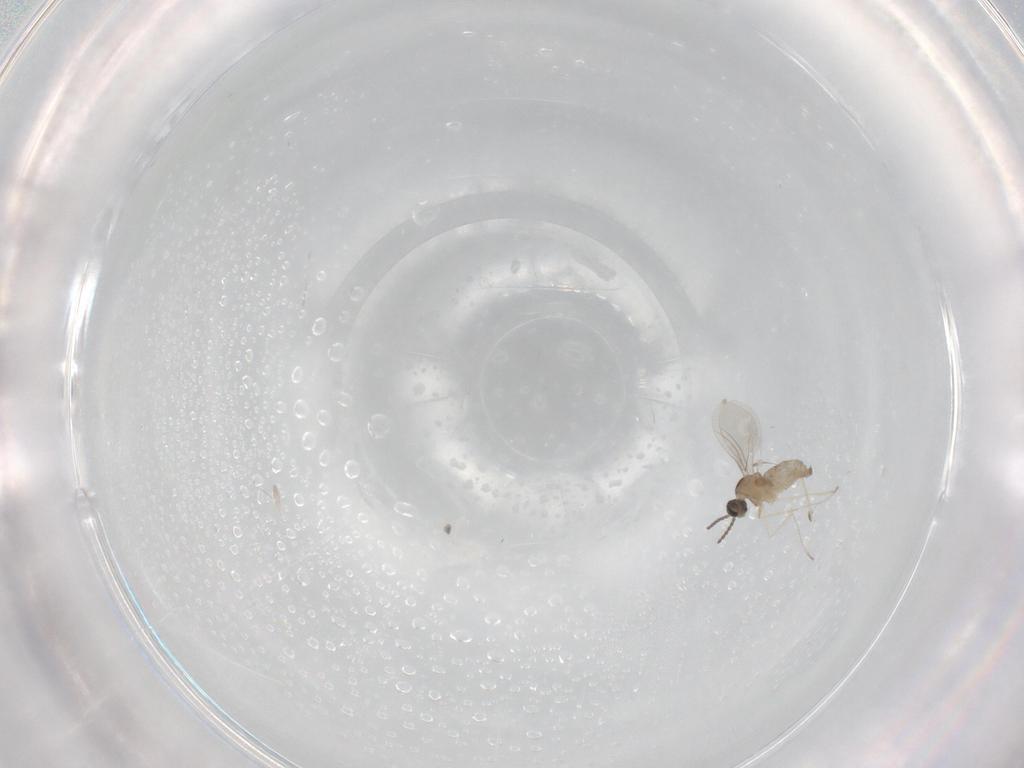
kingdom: Animalia
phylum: Arthropoda
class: Insecta
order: Diptera
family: Cecidomyiidae
